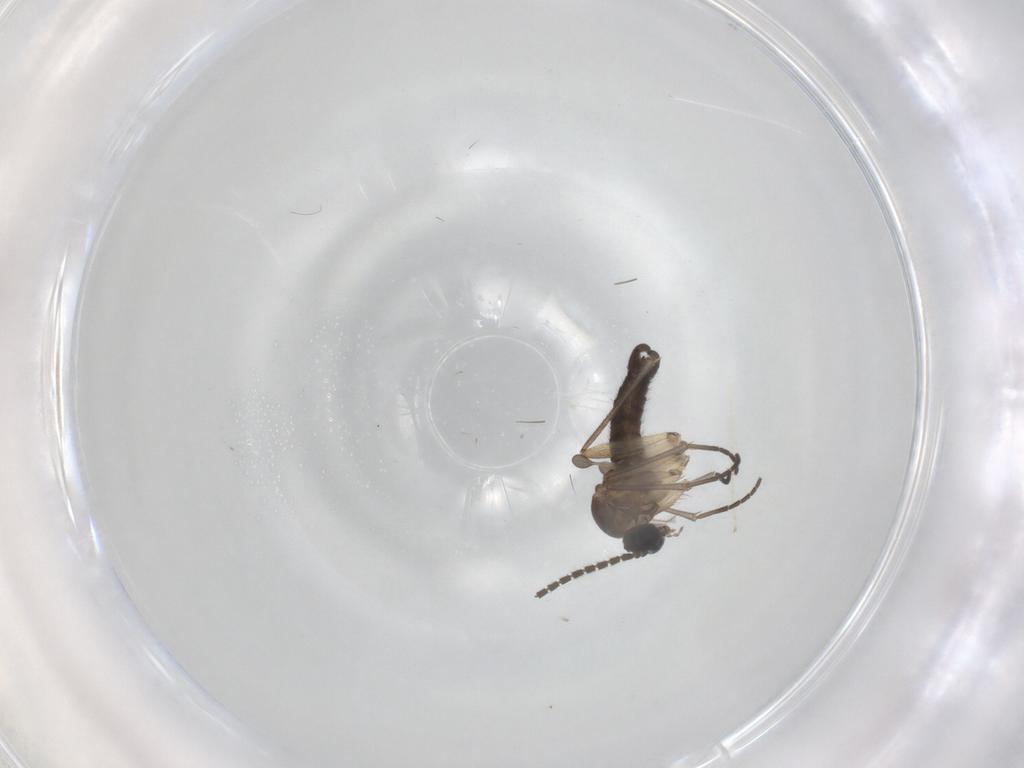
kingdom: Animalia
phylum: Arthropoda
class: Insecta
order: Diptera
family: Sciaridae
